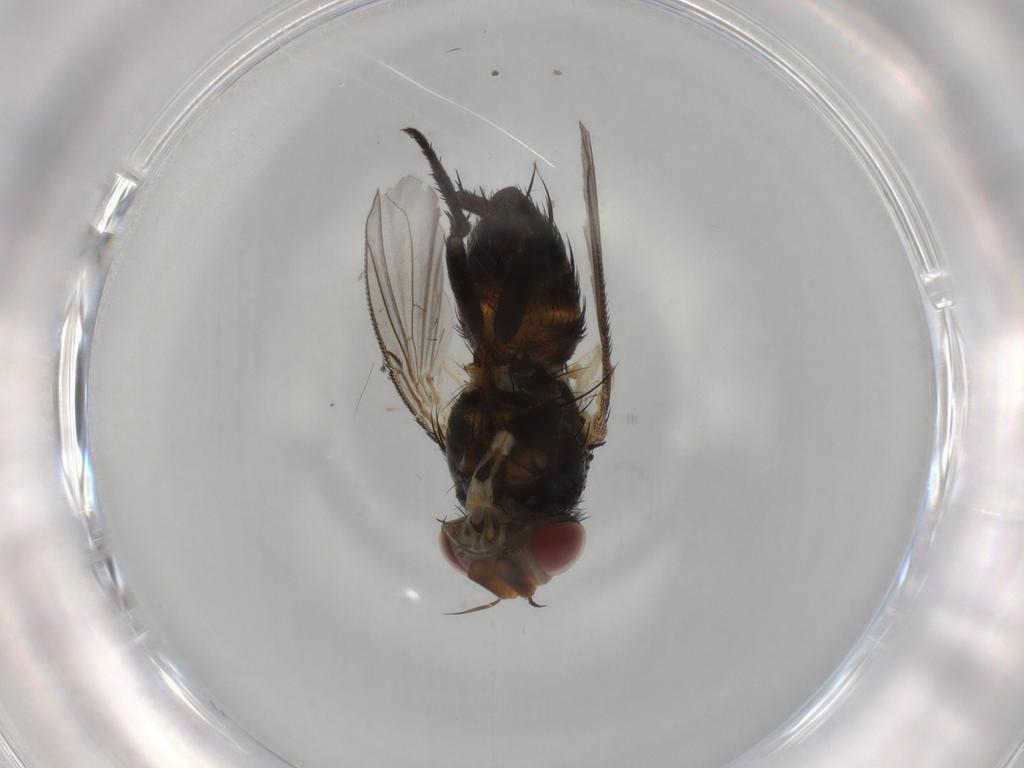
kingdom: Animalia
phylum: Arthropoda
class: Insecta
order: Diptera
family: Tachinidae
